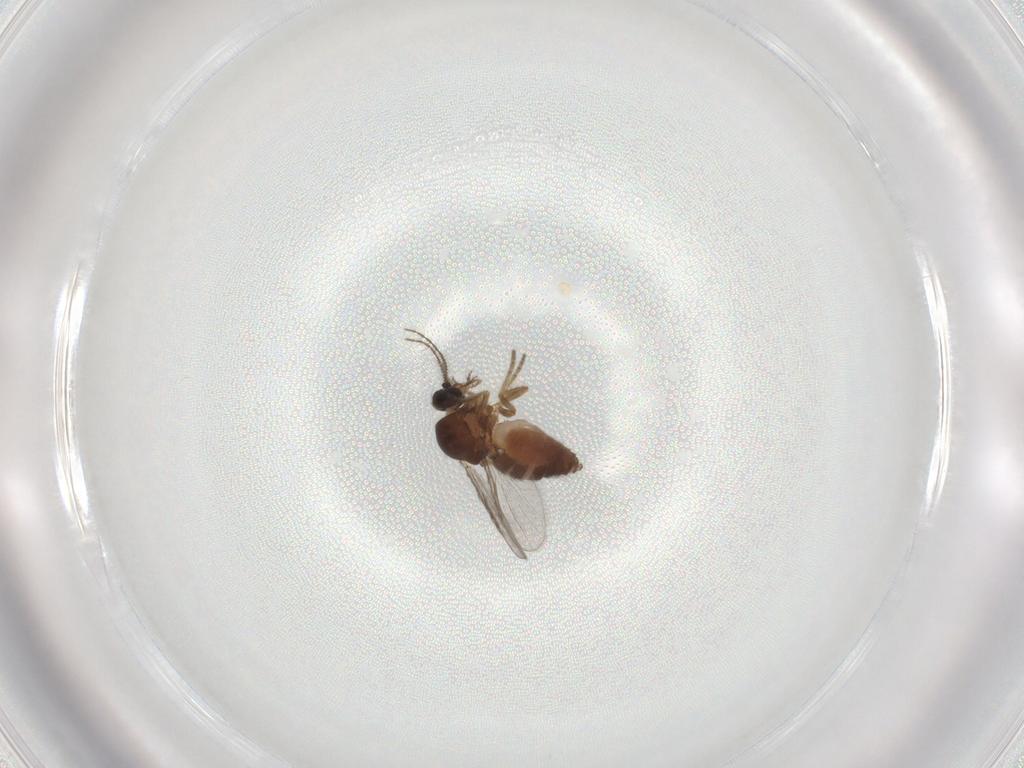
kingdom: Animalia
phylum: Arthropoda
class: Insecta
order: Diptera
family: Ceratopogonidae
